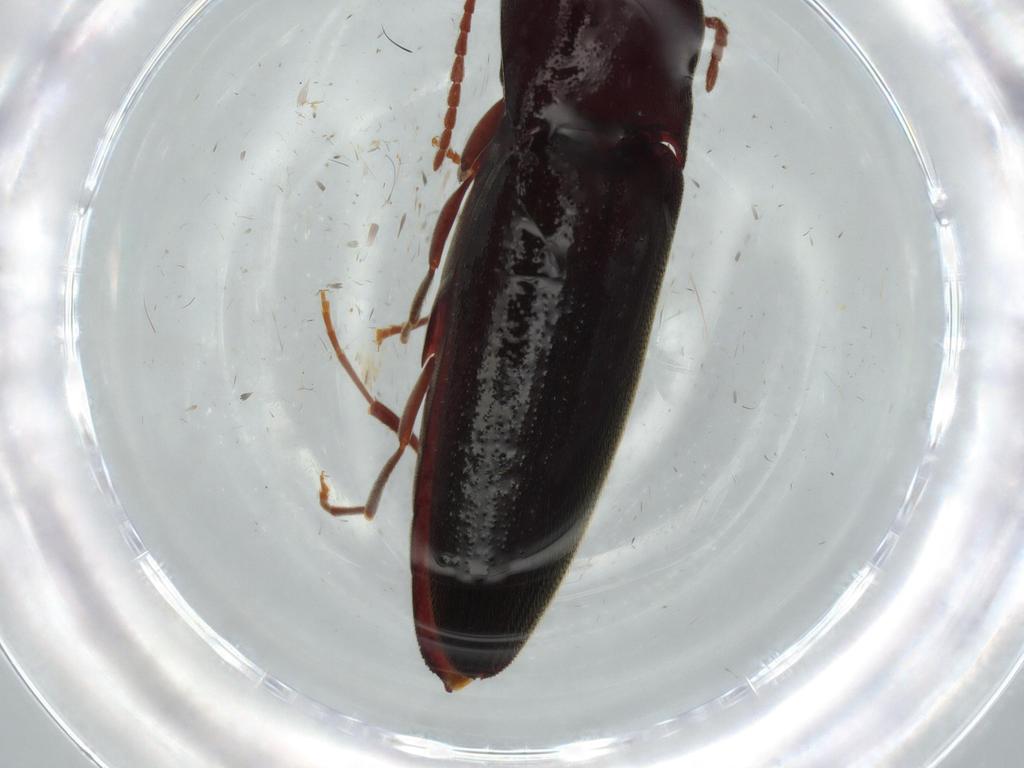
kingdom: Animalia
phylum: Arthropoda
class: Insecta
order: Coleoptera
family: Eucnemidae
